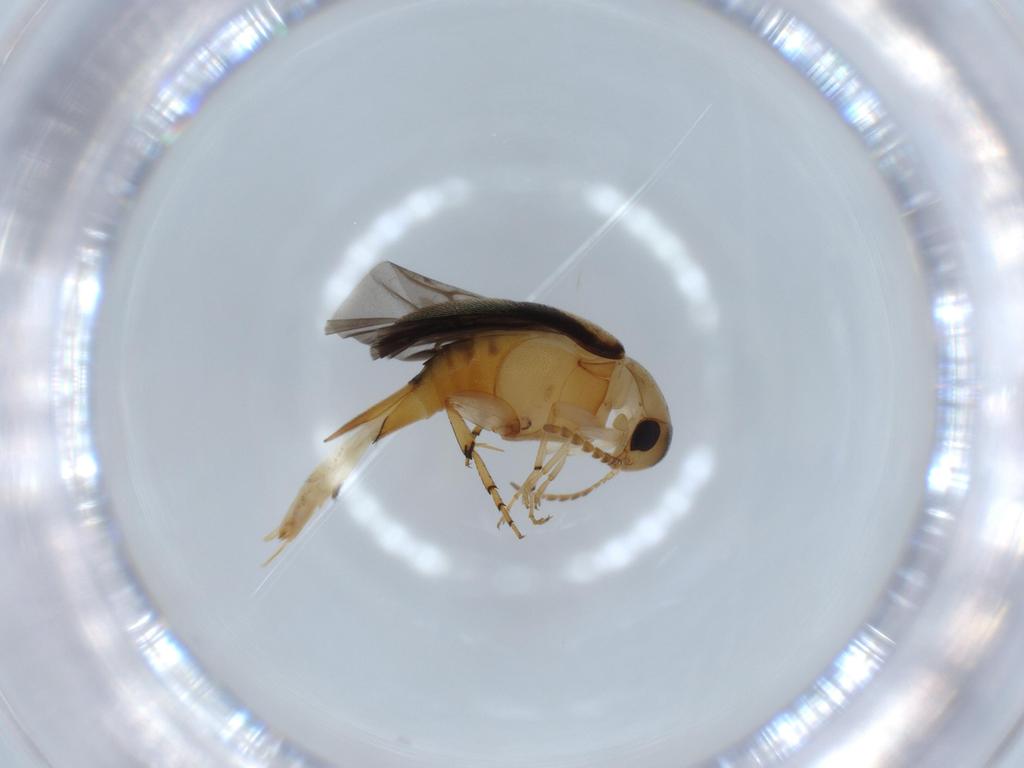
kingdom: Animalia
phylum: Arthropoda
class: Insecta
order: Coleoptera
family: Mordellidae
